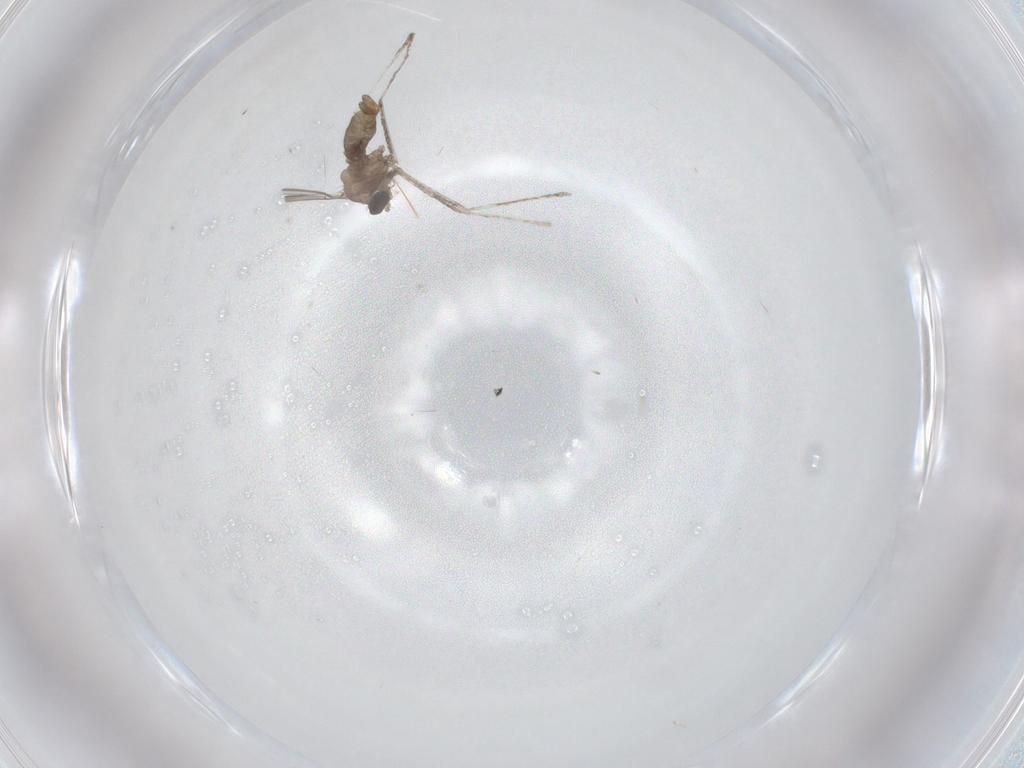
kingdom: Animalia
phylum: Arthropoda
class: Insecta
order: Diptera
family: Cecidomyiidae
